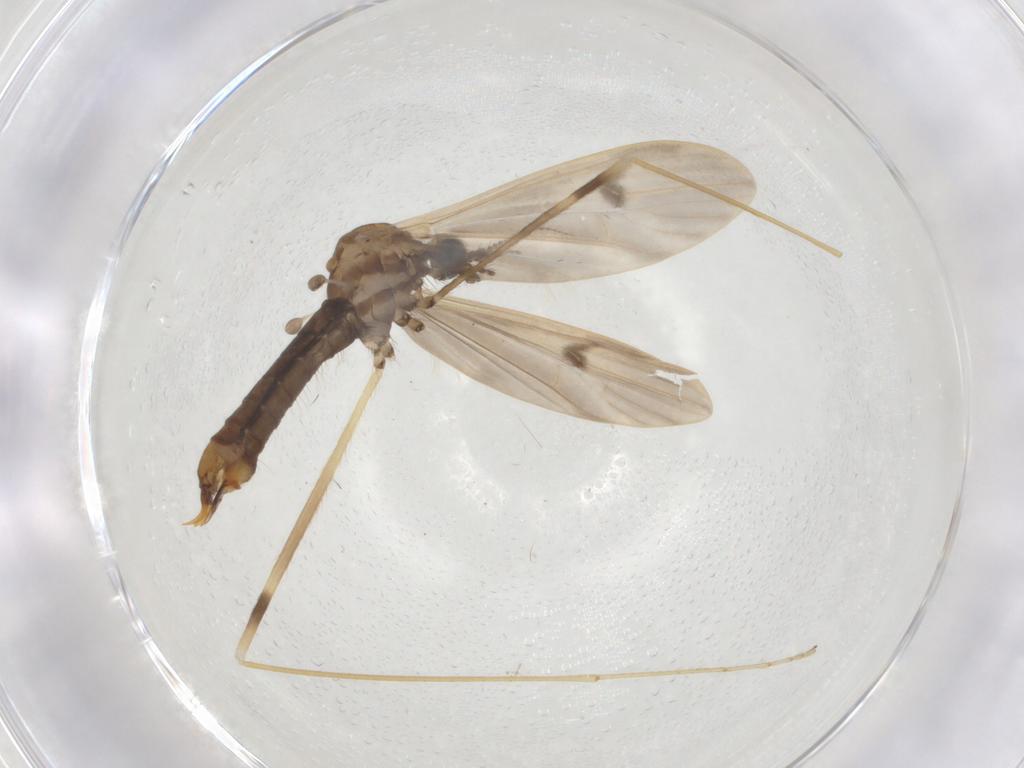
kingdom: Animalia
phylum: Arthropoda
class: Insecta
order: Diptera
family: Limoniidae
